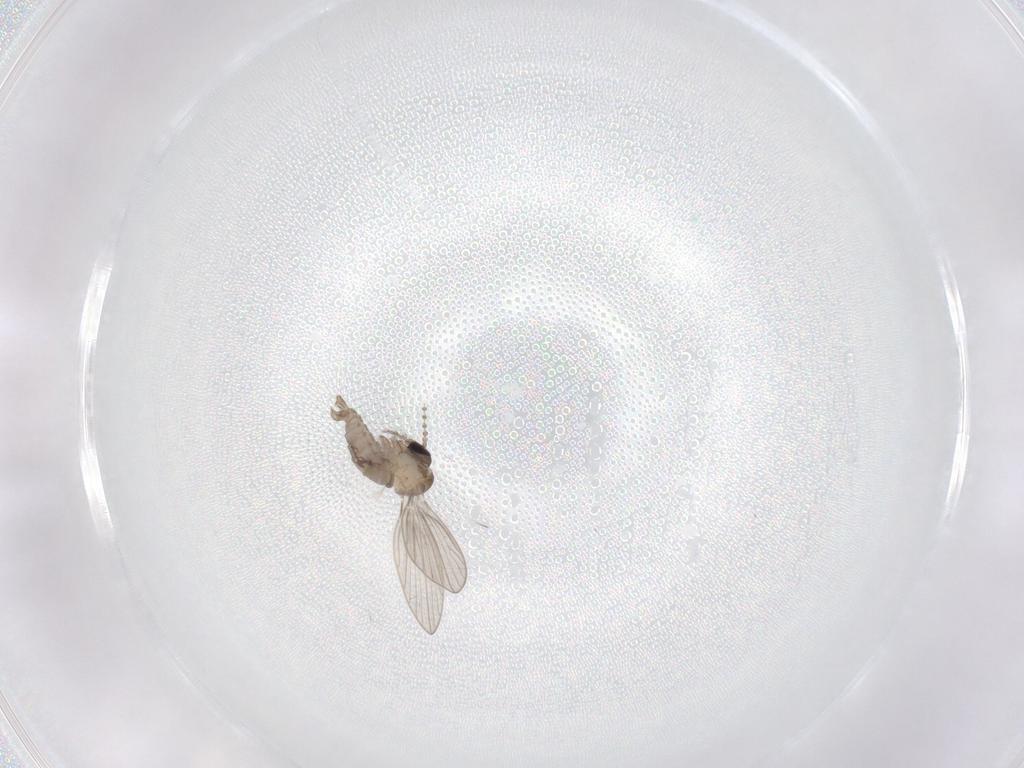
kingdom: Animalia
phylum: Arthropoda
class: Insecta
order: Diptera
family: Psychodidae
